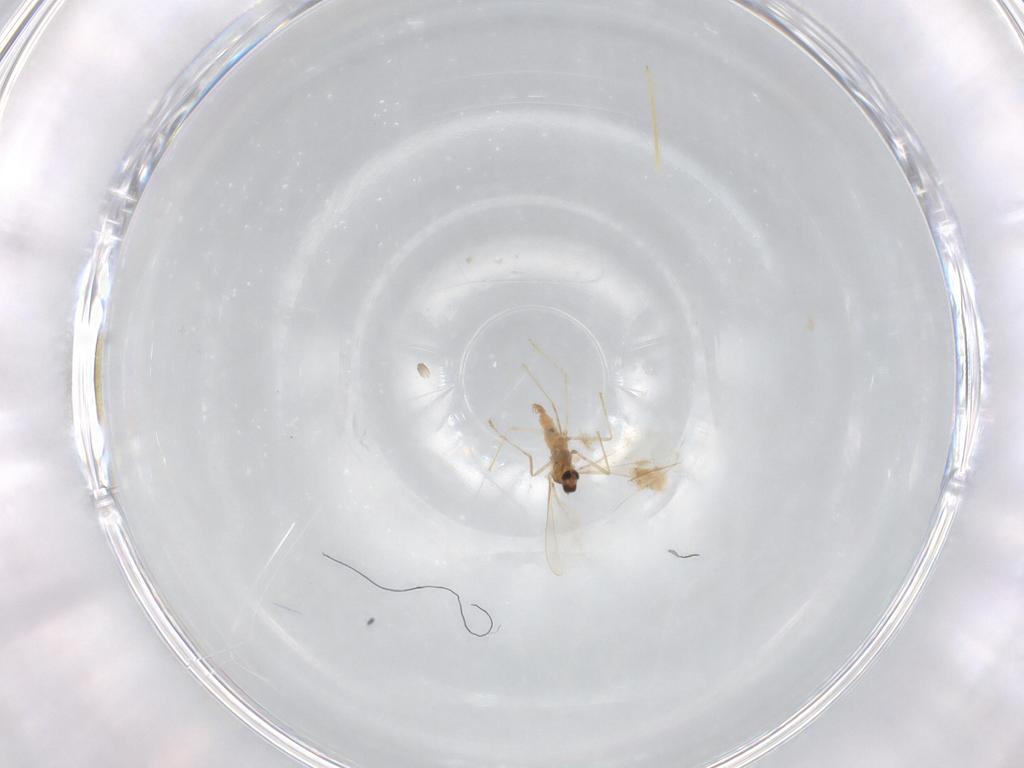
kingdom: Animalia
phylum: Arthropoda
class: Insecta
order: Diptera
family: Cecidomyiidae
